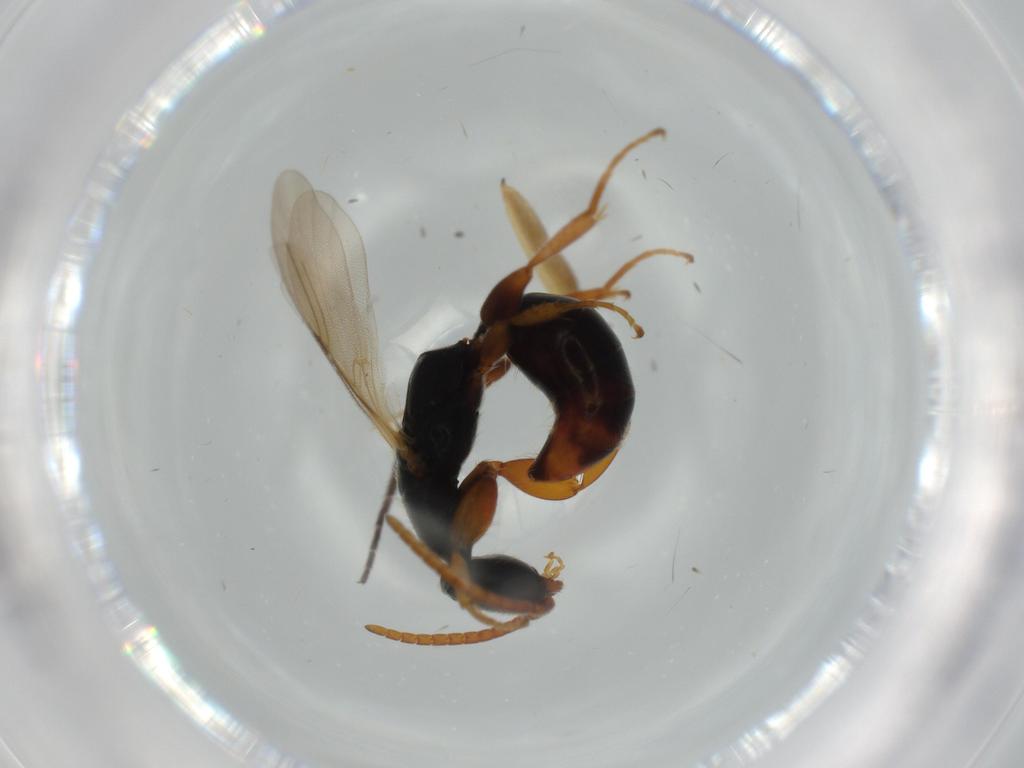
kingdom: Animalia
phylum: Arthropoda
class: Insecta
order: Hymenoptera
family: Bethylidae
